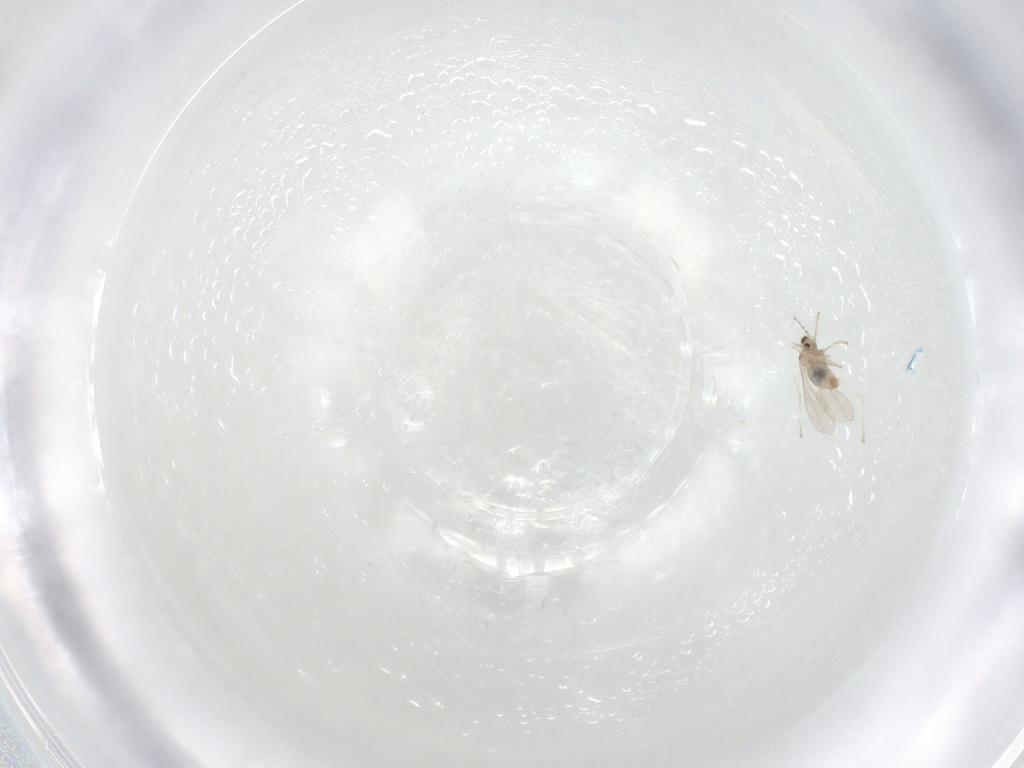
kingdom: Animalia
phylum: Arthropoda
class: Insecta
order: Diptera
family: Cecidomyiidae
